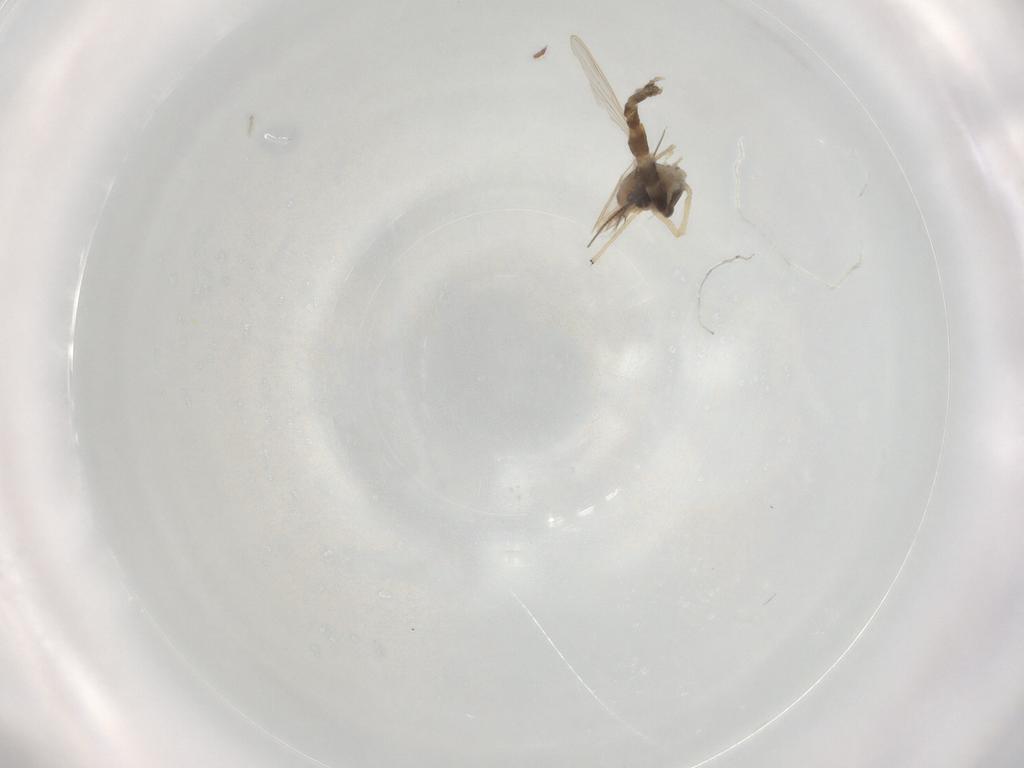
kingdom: Animalia
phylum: Arthropoda
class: Insecta
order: Diptera
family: Chironomidae
